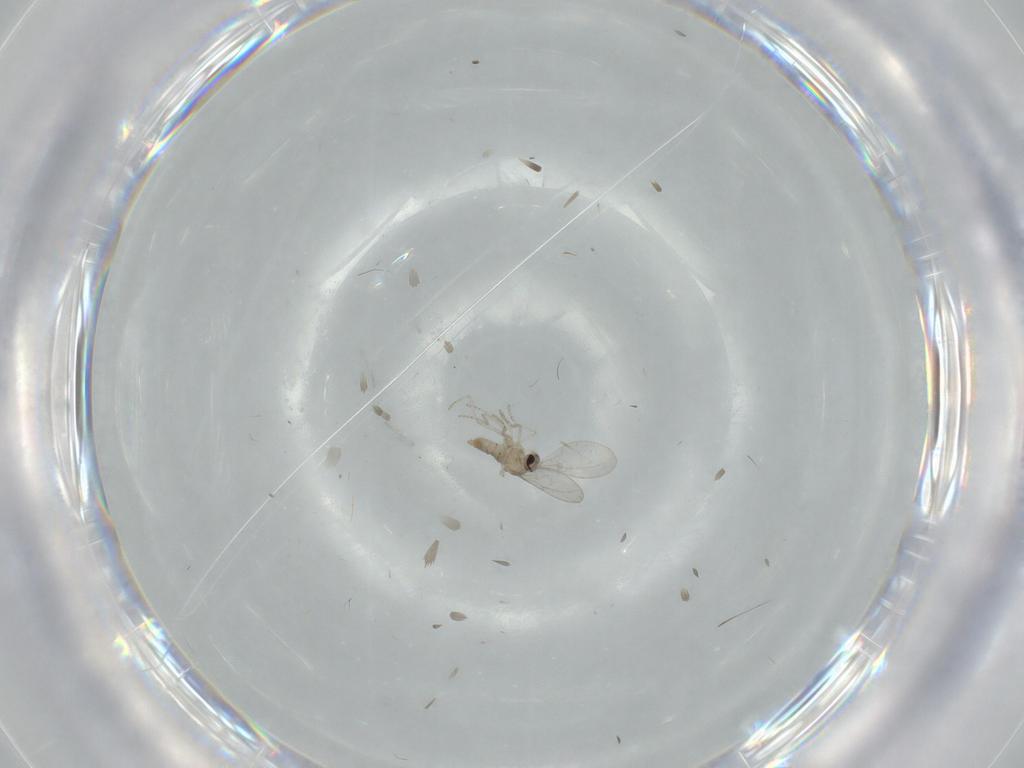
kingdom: Animalia
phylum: Arthropoda
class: Insecta
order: Diptera
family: Cecidomyiidae
